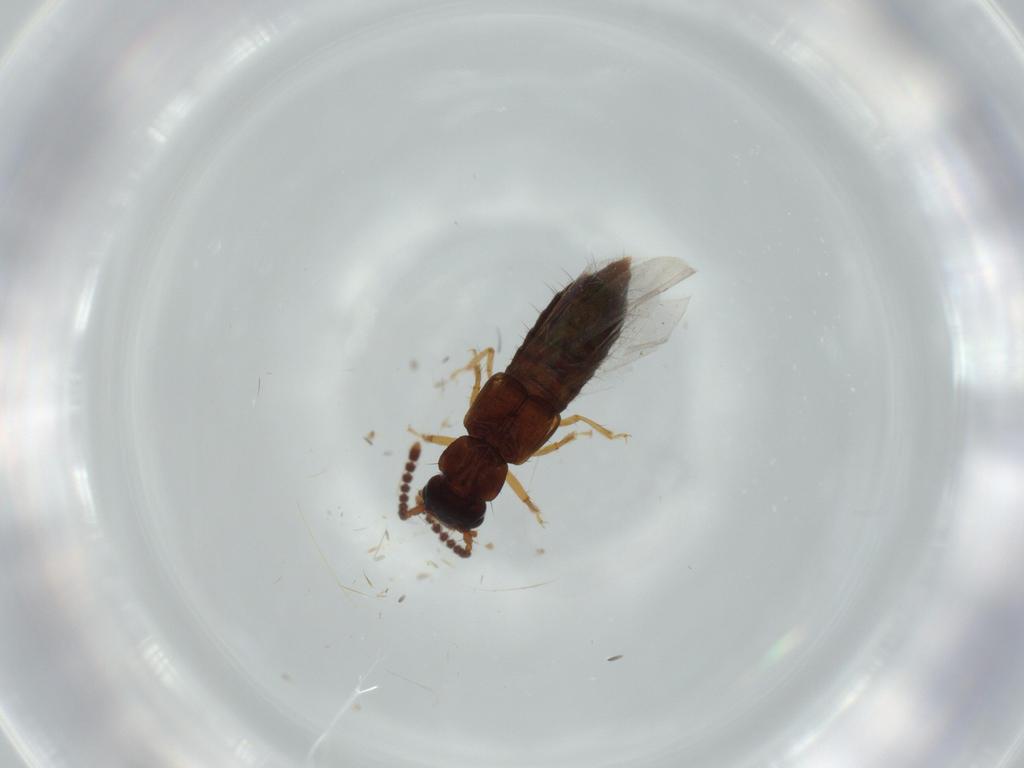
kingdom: Animalia
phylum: Arthropoda
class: Insecta
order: Coleoptera
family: Staphylinidae
